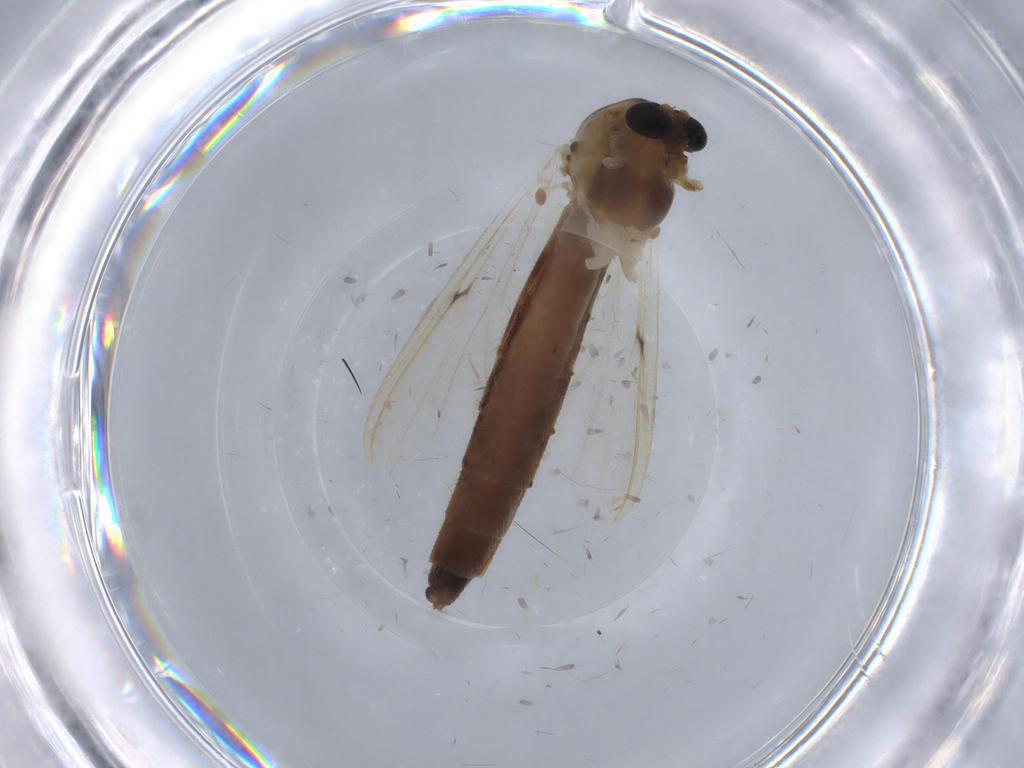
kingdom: Animalia
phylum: Arthropoda
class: Insecta
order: Diptera
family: Chironomidae
